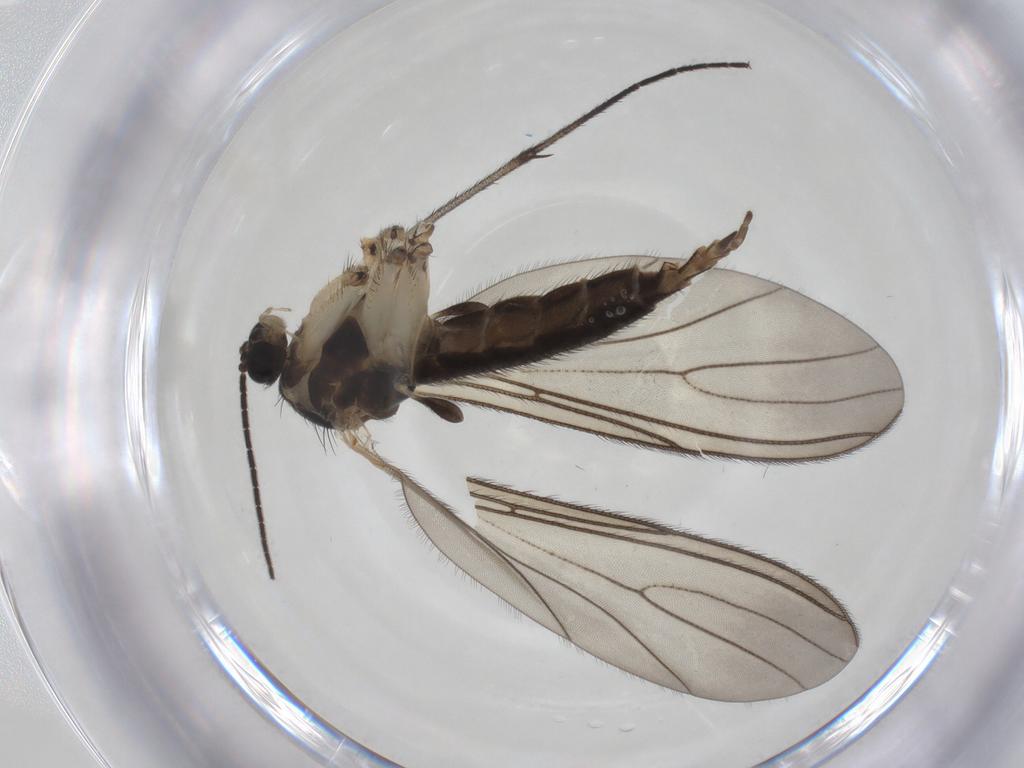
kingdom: Animalia
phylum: Arthropoda
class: Insecta
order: Diptera
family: Sciaridae
